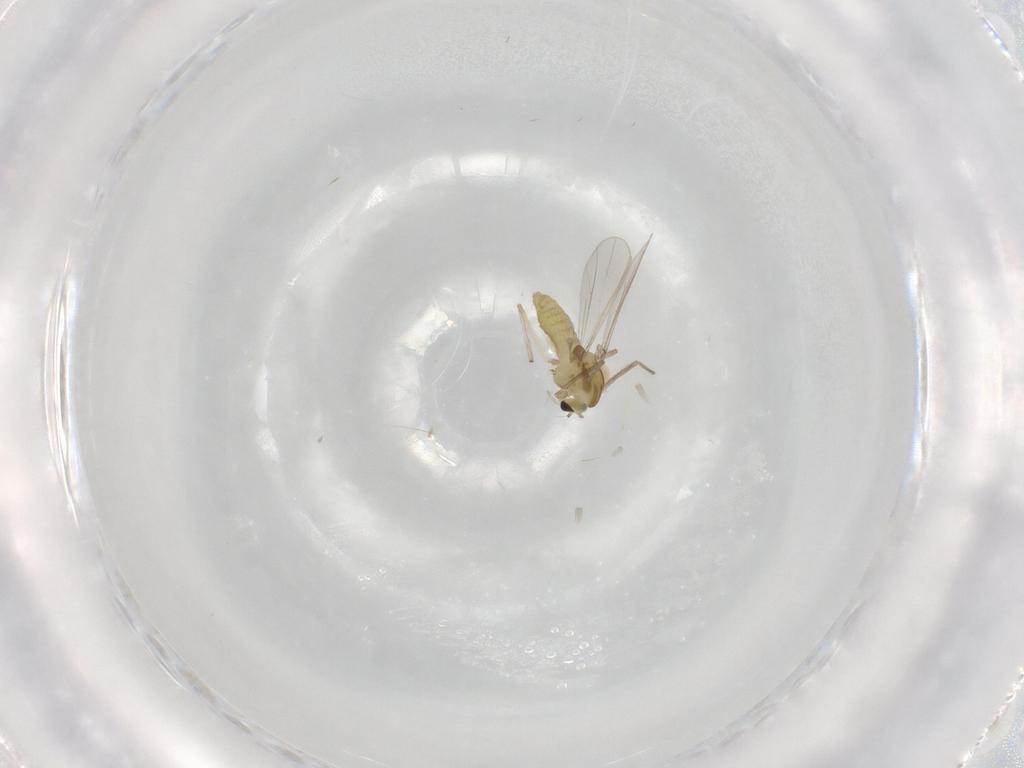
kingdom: Animalia
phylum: Arthropoda
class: Insecta
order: Diptera
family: Chironomidae
